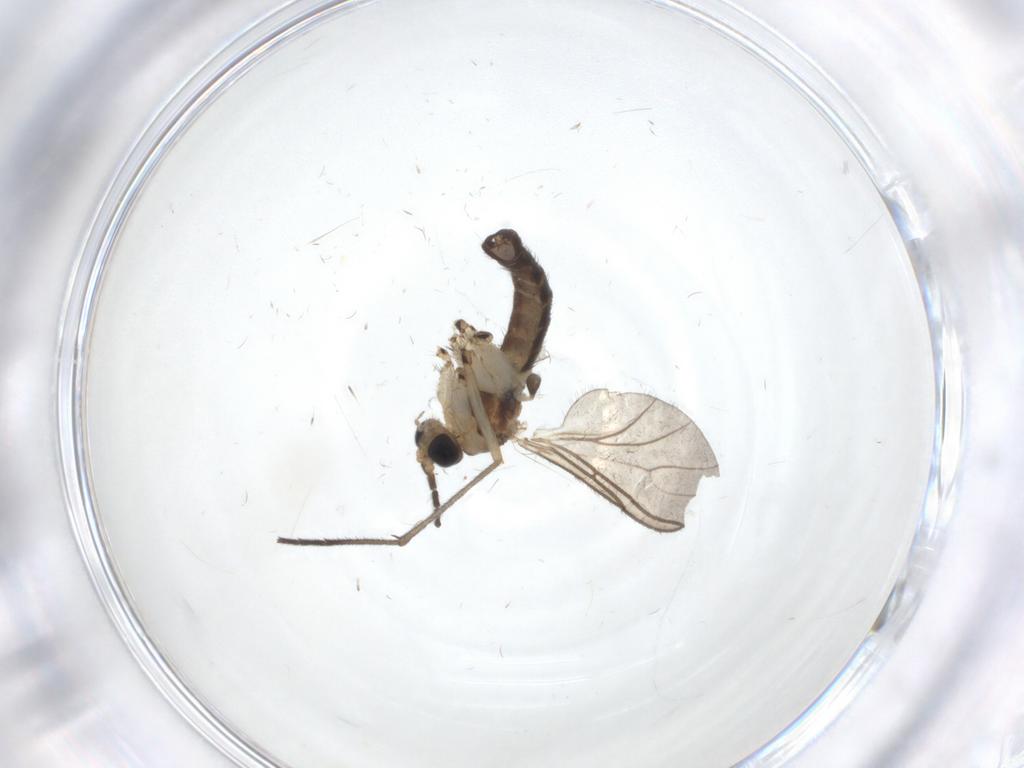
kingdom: Animalia
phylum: Arthropoda
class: Insecta
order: Diptera
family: Sciaridae
